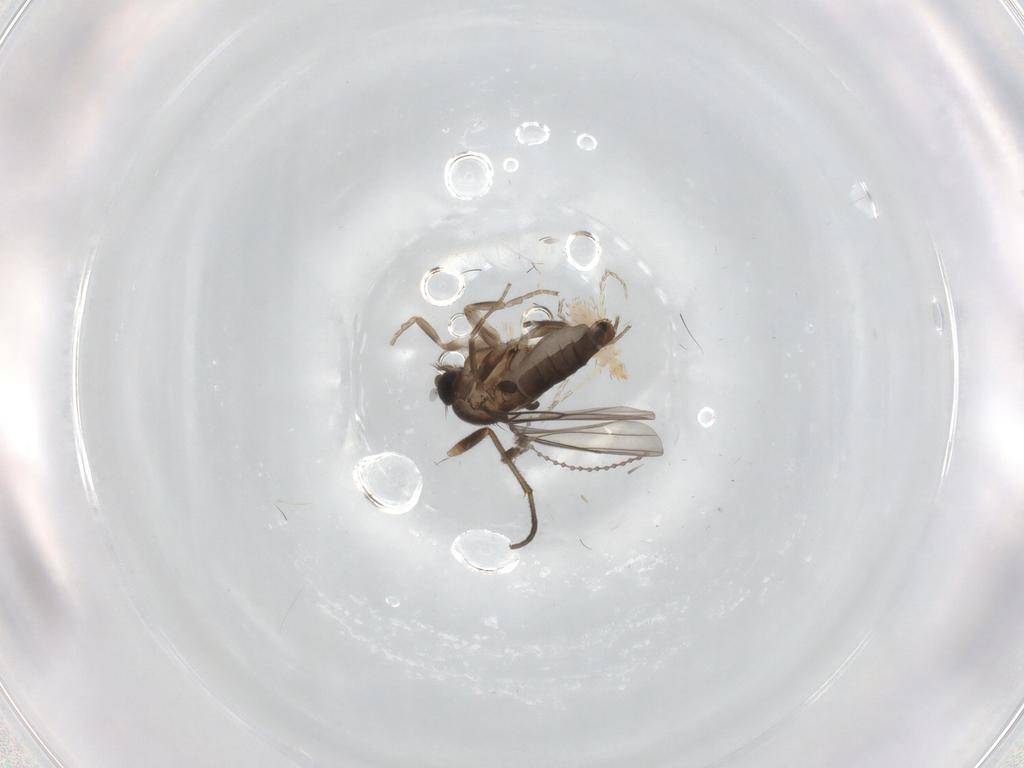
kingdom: Animalia
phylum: Arthropoda
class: Insecta
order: Diptera
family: Phoridae
